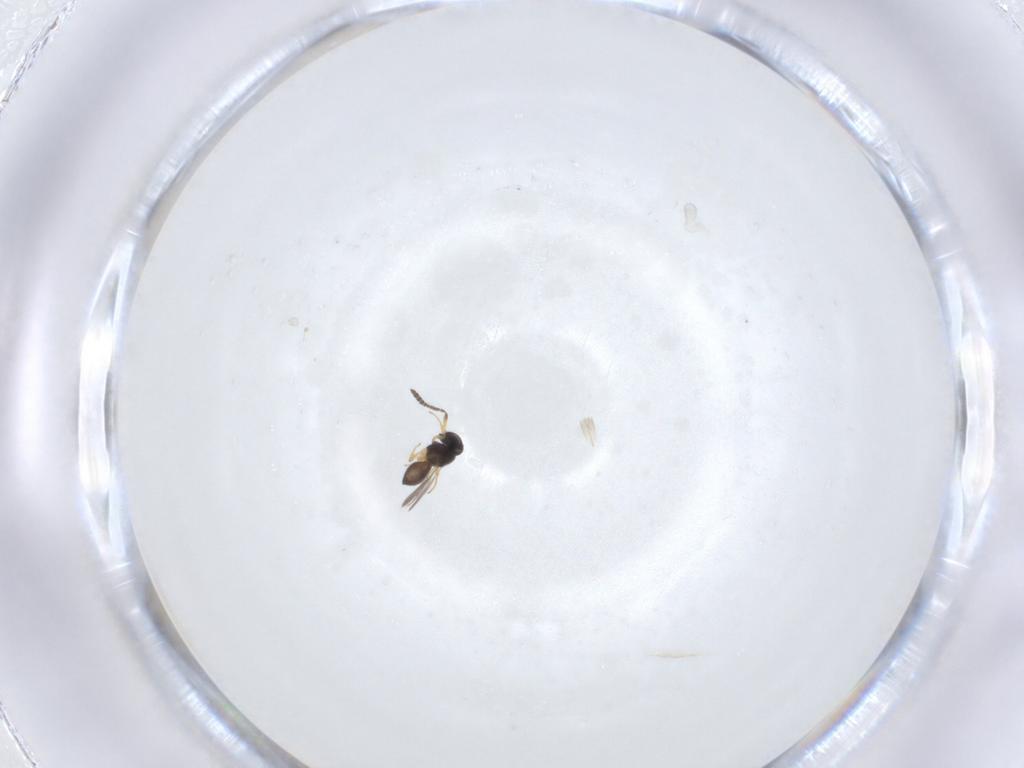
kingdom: Animalia
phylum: Arthropoda
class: Insecta
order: Hymenoptera
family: Scelionidae
